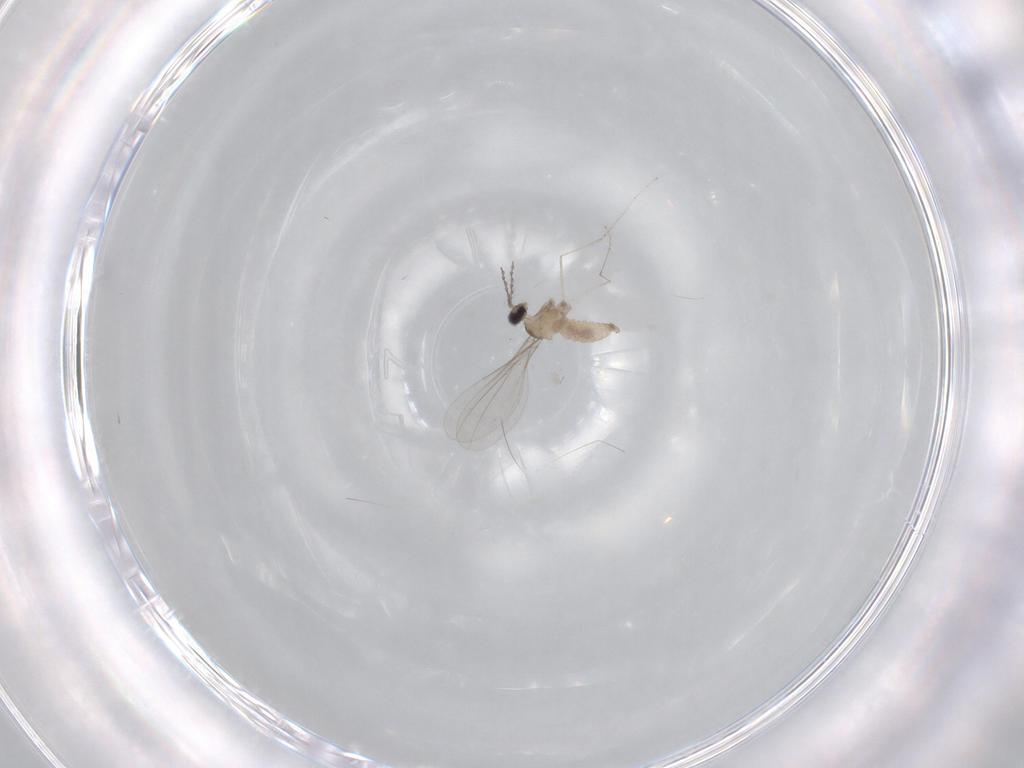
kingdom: Animalia
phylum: Arthropoda
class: Insecta
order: Diptera
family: Cecidomyiidae
